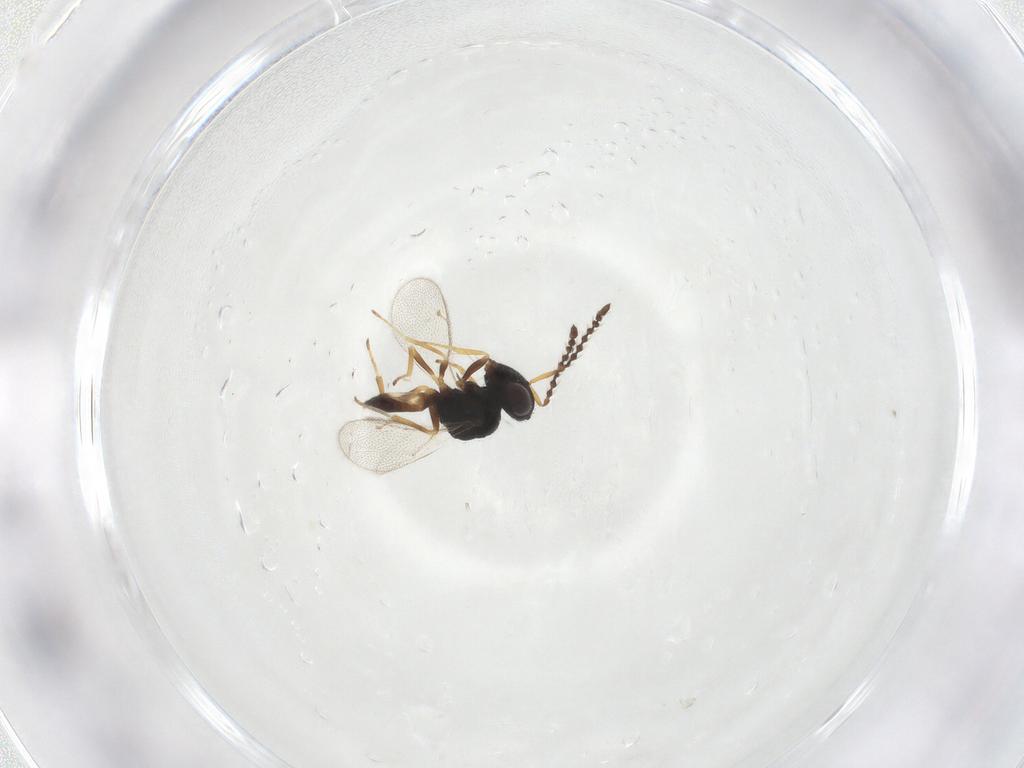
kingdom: Animalia
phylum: Arthropoda
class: Insecta
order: Hymenoptera
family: Pteromalidae
